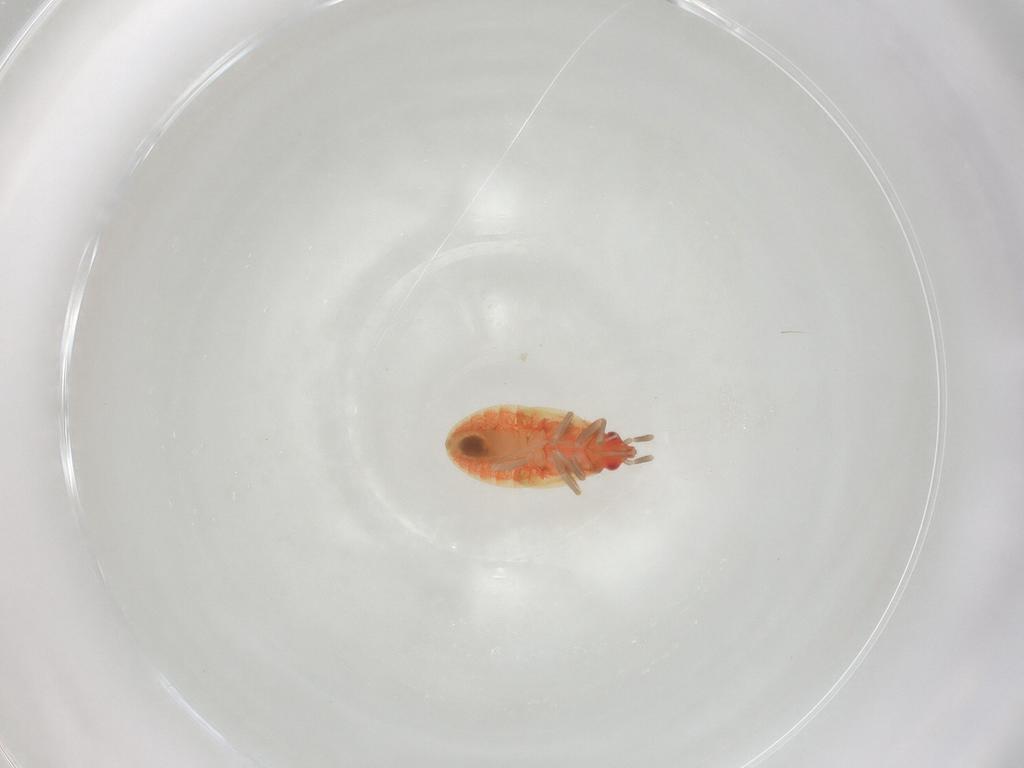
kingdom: Animalia
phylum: Arthropoda
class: Insecta
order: Hemiptera
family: Anthocoridae
